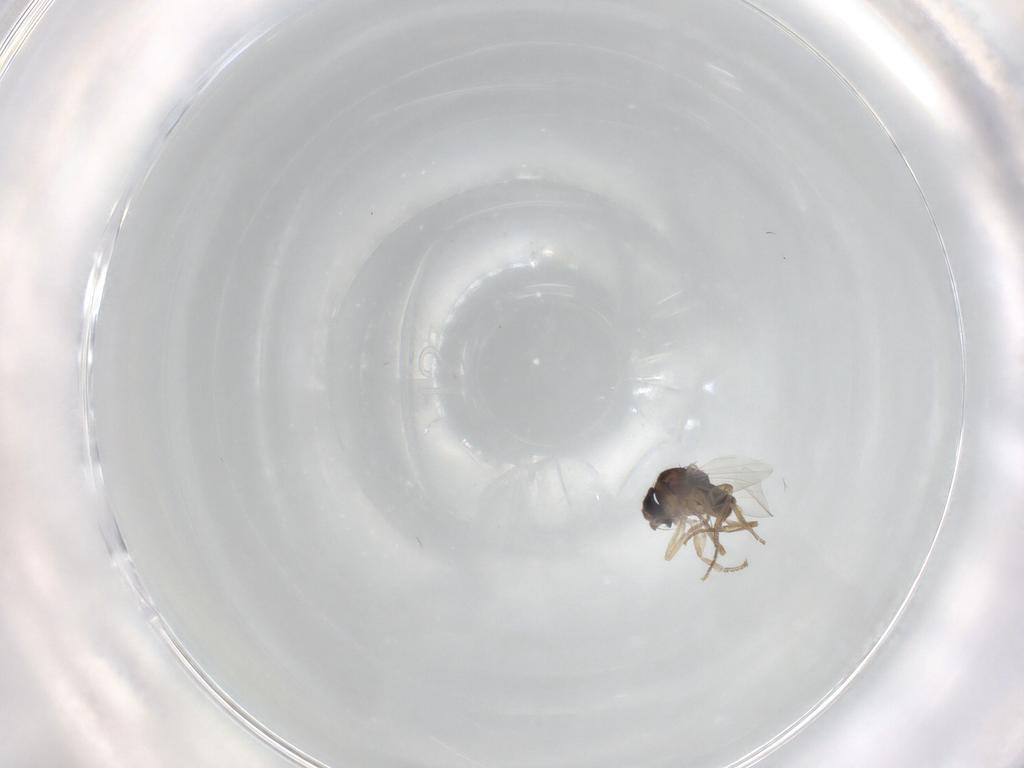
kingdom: Animalia
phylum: Arthropoda
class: Insecta
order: Diptera
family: Phoridae
